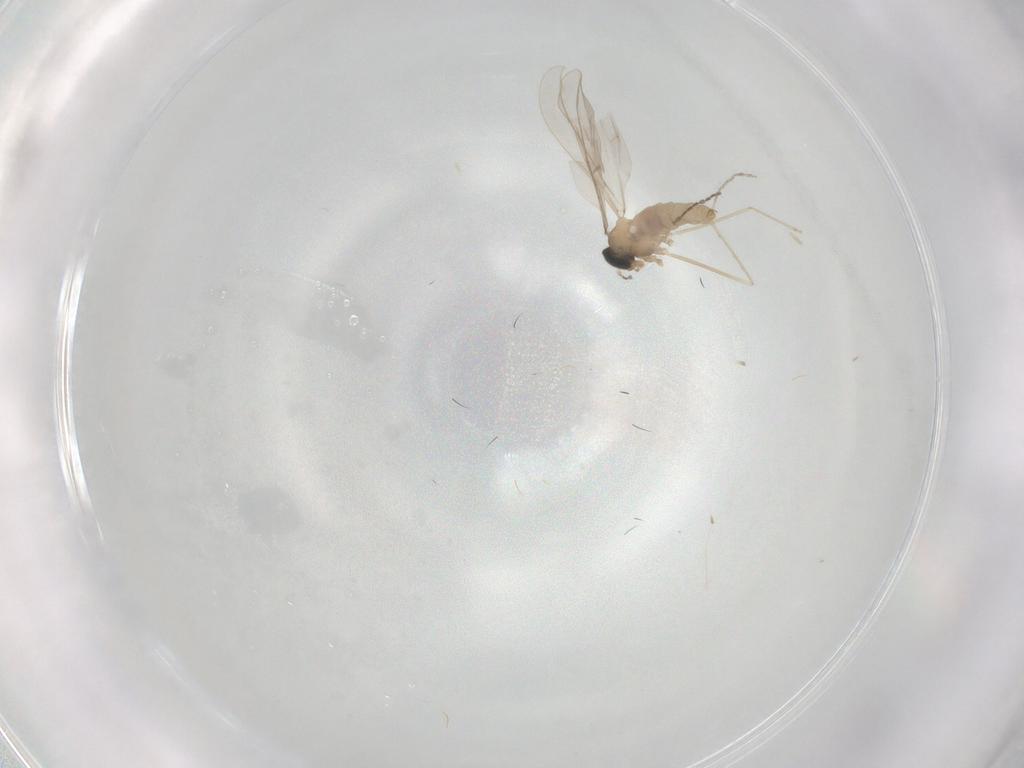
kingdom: Animalia
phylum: Arthropoda
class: Insecta
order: Diptera
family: Cecidomyiidae
